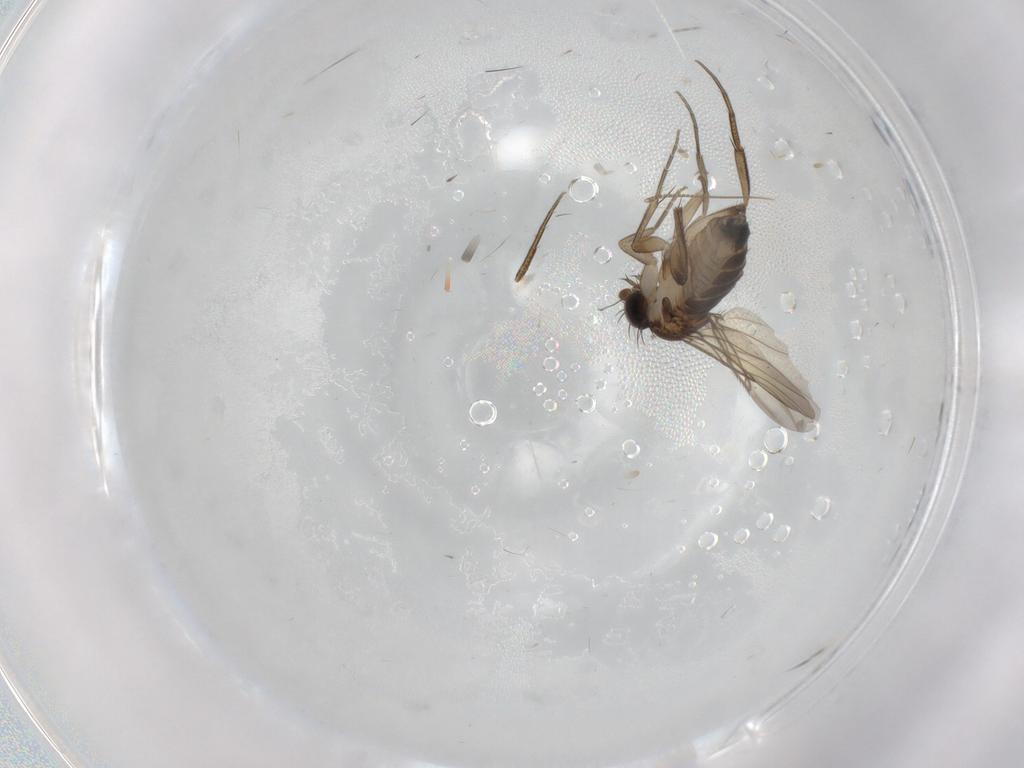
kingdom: Animalia
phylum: Arthropoda
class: Insecta
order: Diptera
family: Phoridae
